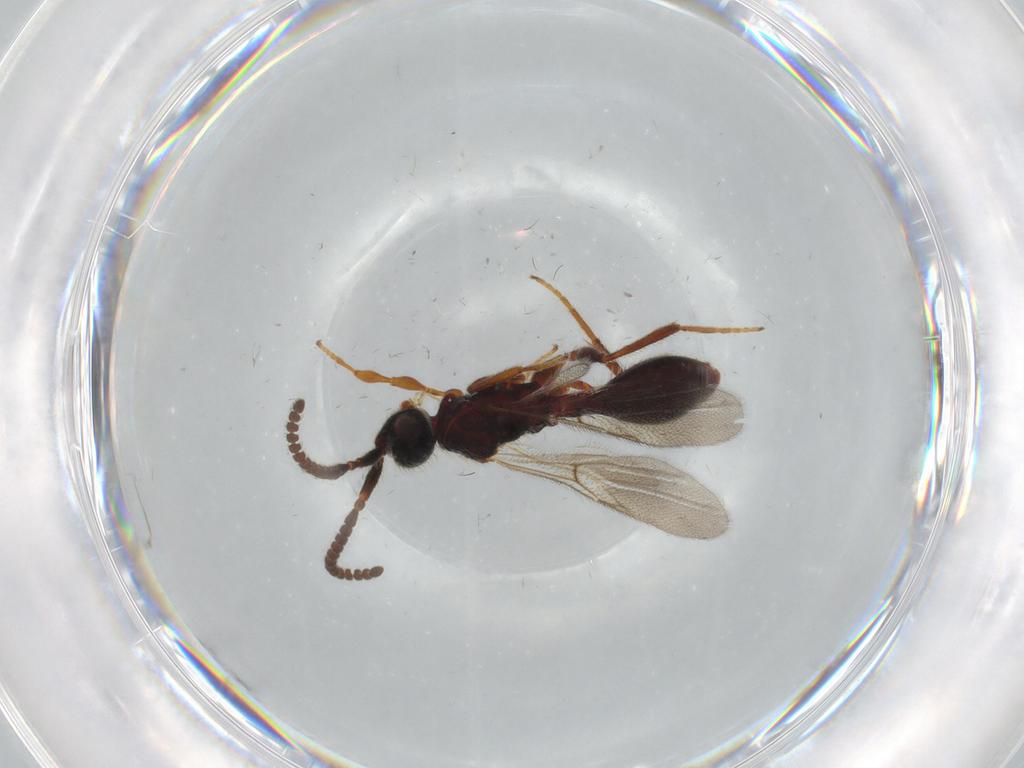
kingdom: Animalia
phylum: Arthropoda
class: Insecta
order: Hymenoptera
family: Diapriidae
